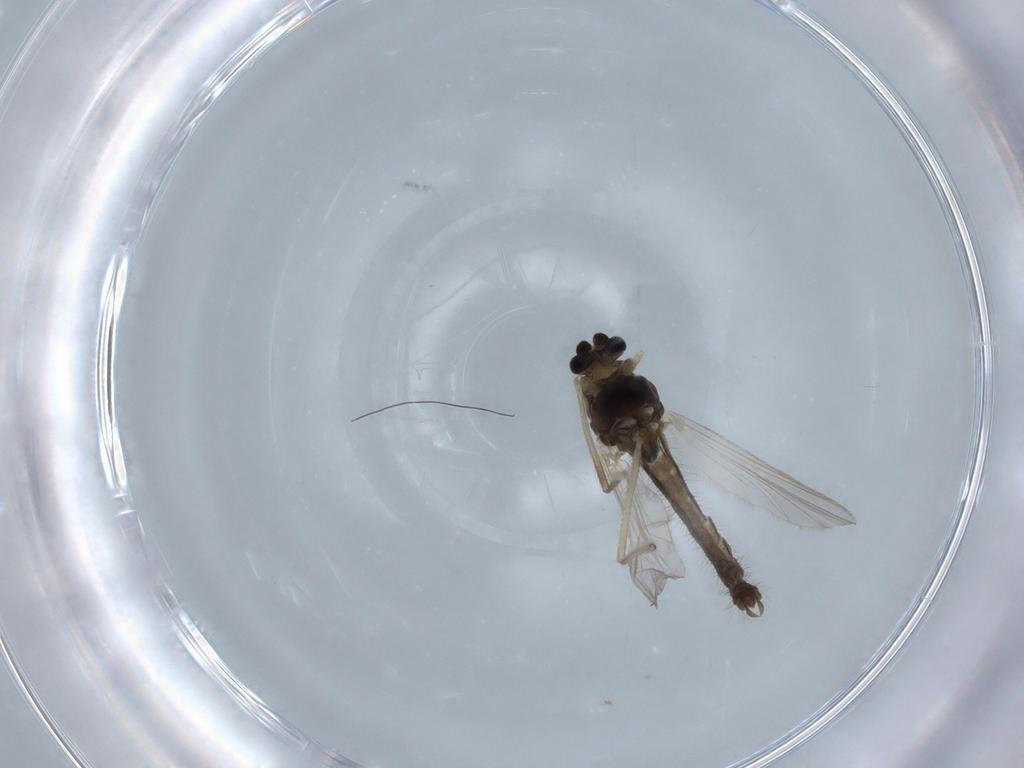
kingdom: Animalia
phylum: Arthropoda
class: Insecta
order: Diptera
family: Chironomidae
